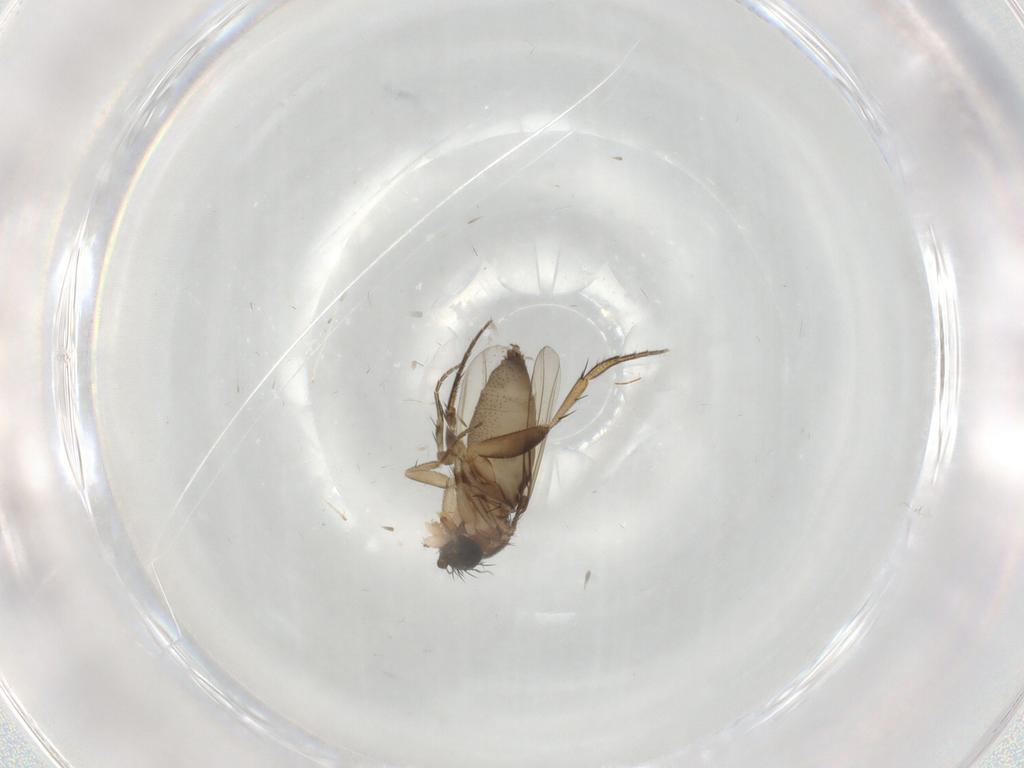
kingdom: Animalia
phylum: Arthropoda
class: Insecta
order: Diptera
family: Phoridae
